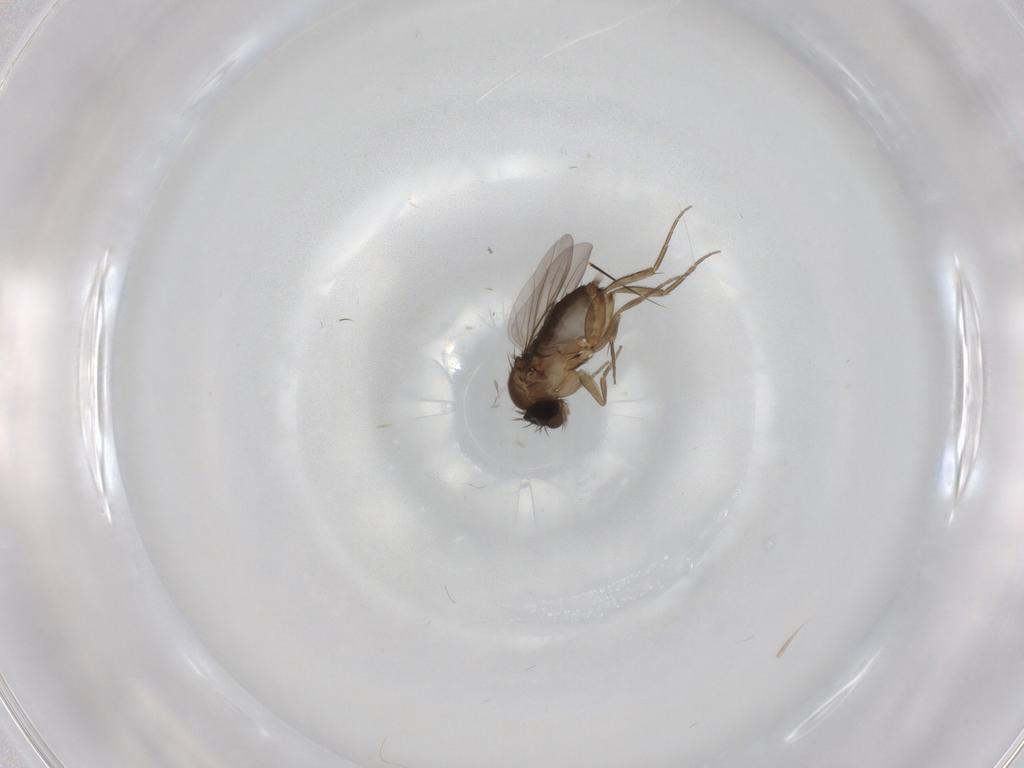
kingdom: Animalia
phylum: Arthropoda
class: Insecta
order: Diptera
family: Phoridae
